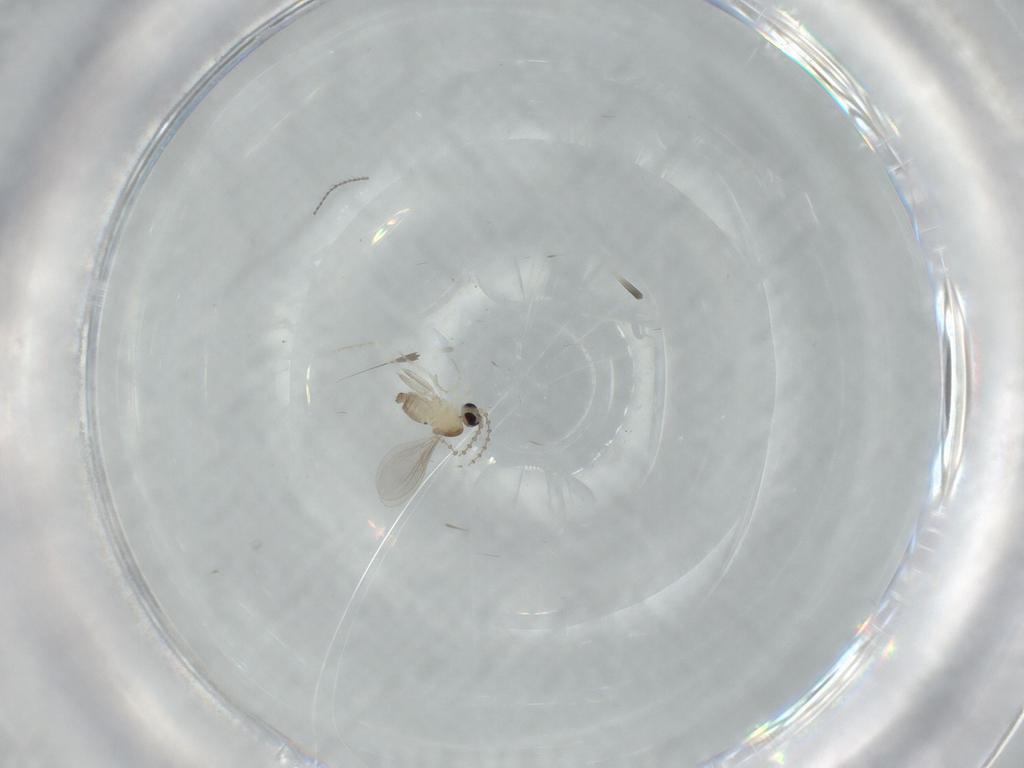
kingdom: Animalia
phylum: Arthropoda
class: Insecta
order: Diptera
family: Cecidomyiidae
